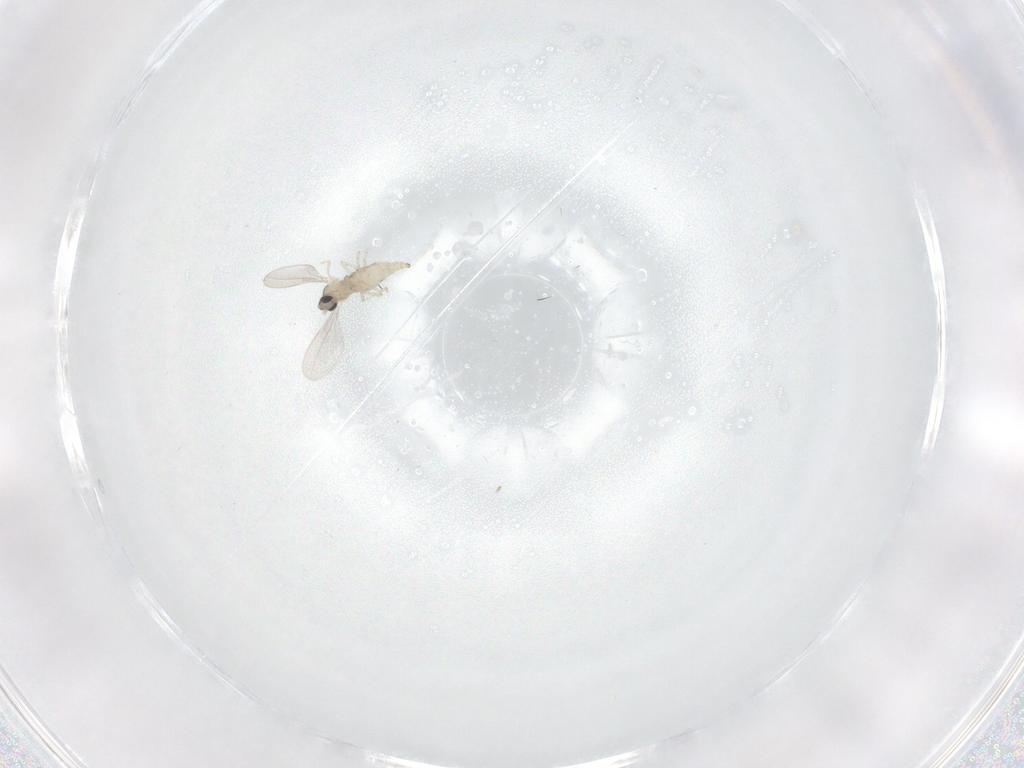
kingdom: Animalia
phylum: Arthropoda
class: Insecta
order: Diptera
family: Cecidomyiidae
